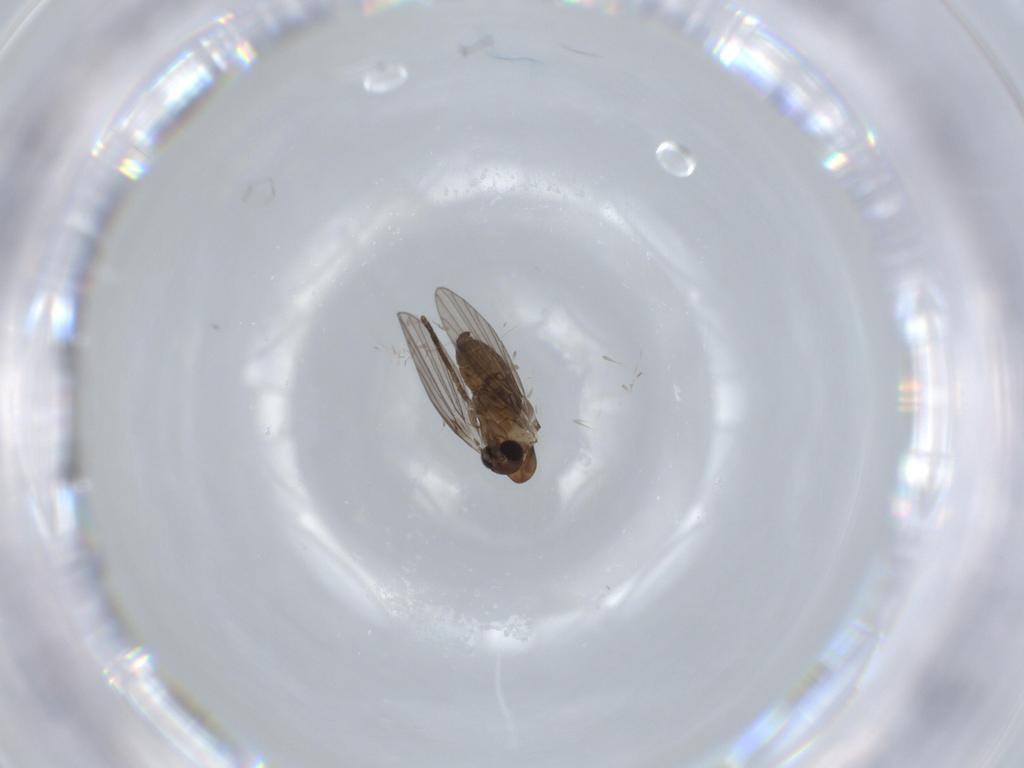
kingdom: Animalia
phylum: Arthropoda
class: Insecta
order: Diptera
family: Psychodidae
